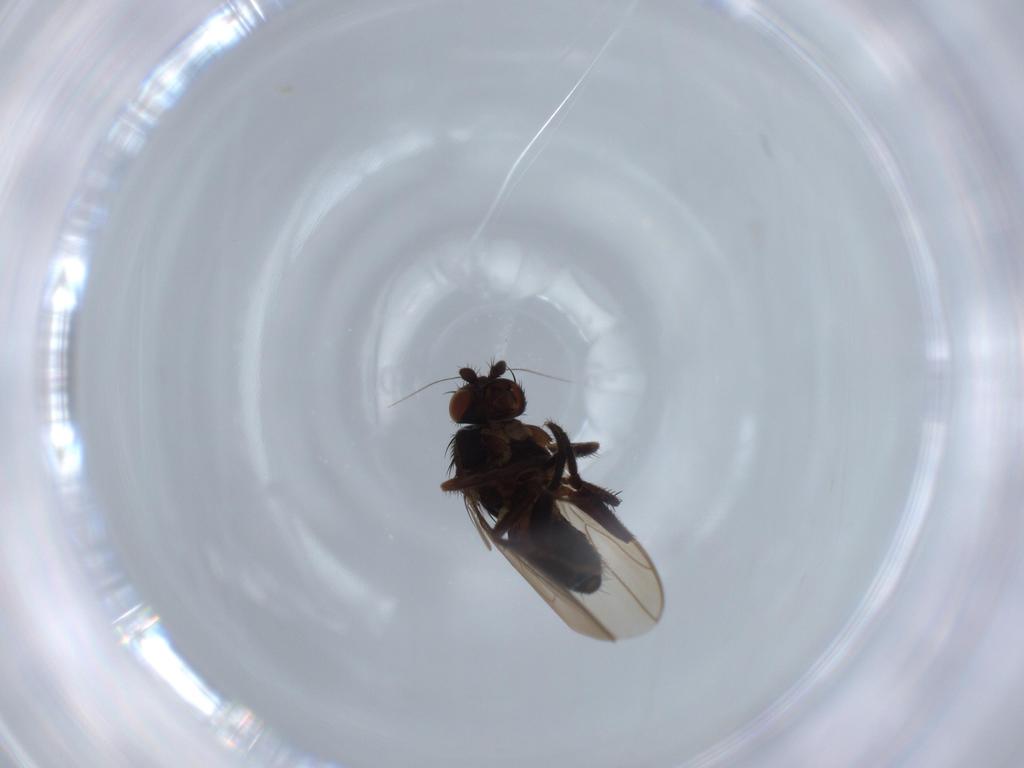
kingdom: Animalia
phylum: Arthropoda
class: Insecta
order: Diptera
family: Sphaeroceridae
